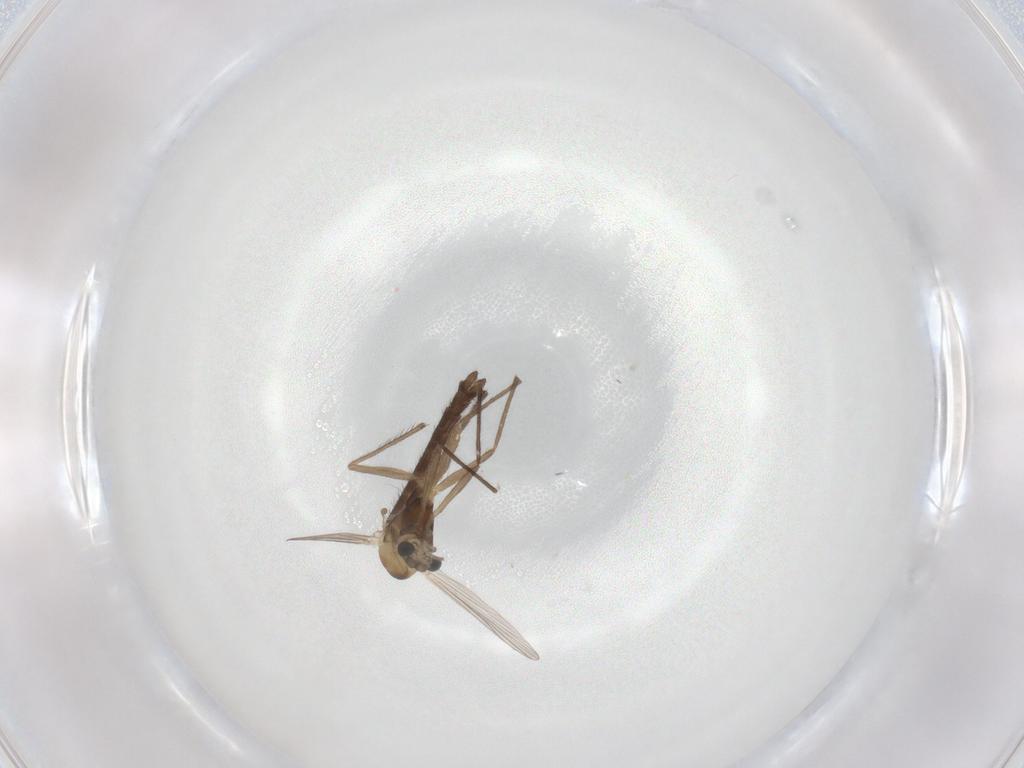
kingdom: Animalia
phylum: Arthropoda
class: Insecta
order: Diptera
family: Chironomidae
